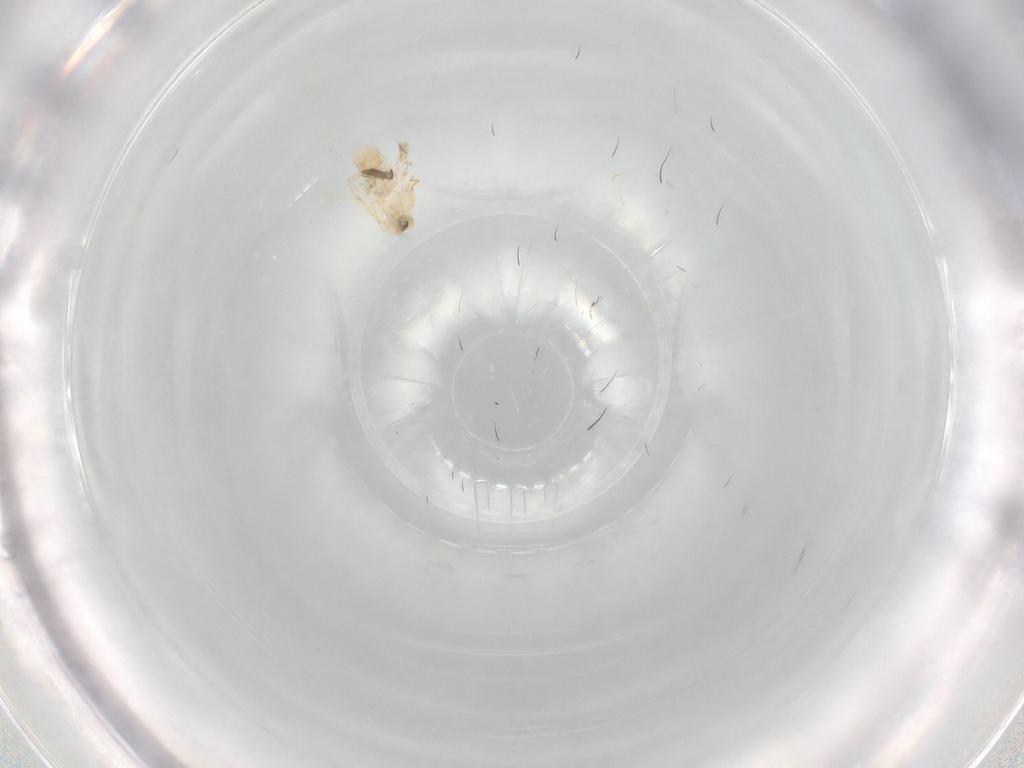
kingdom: Animalia
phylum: Arthropoda
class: Insecta
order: Hemiptera
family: Aleyrodidae
